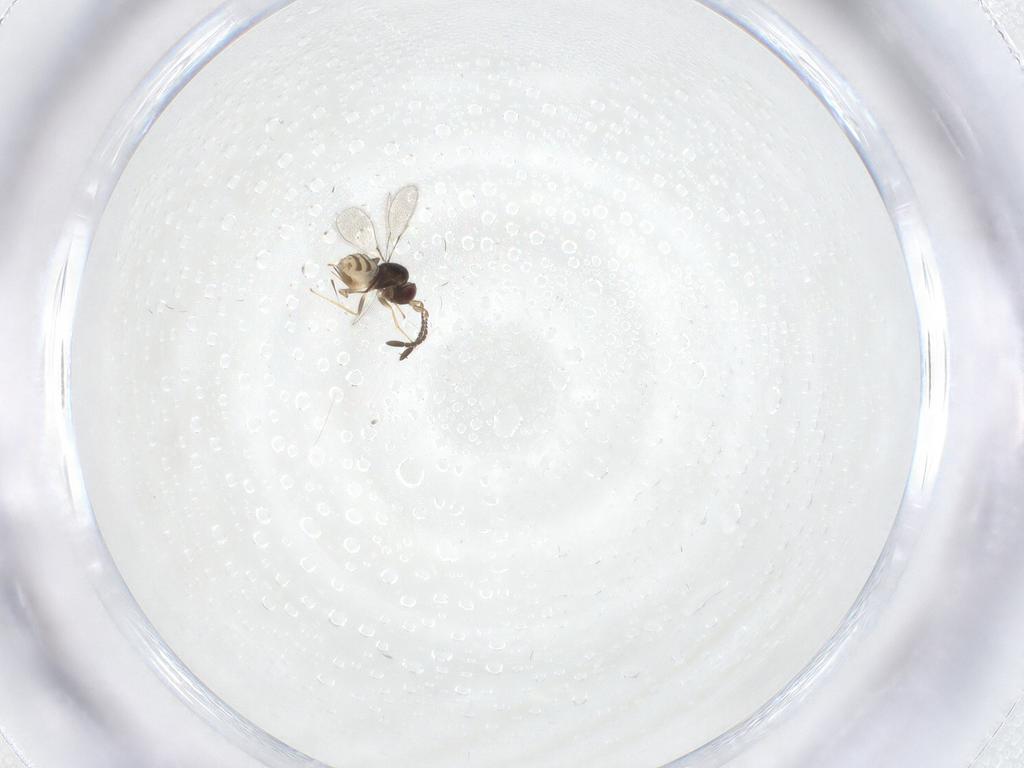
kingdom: Animalia
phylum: Arthropoda
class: Insecta
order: Hymenoptera
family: Mymaridae
